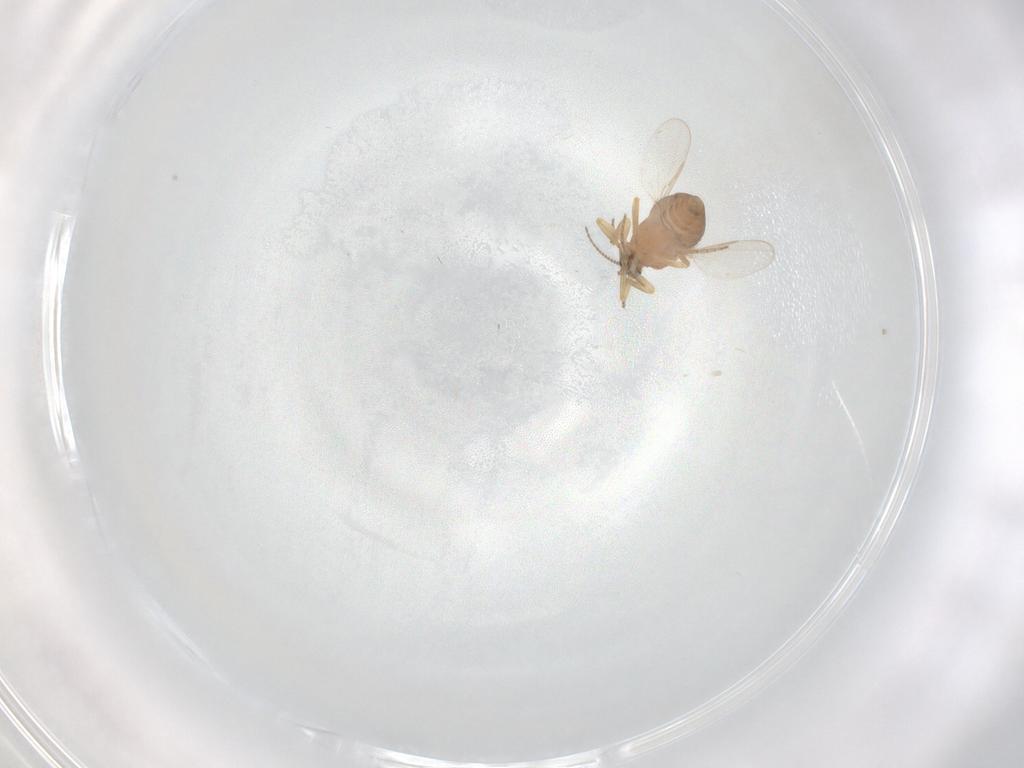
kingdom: Animalia
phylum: Arthropoda
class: Insecta
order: Diptera
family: Ceratopogonidae
